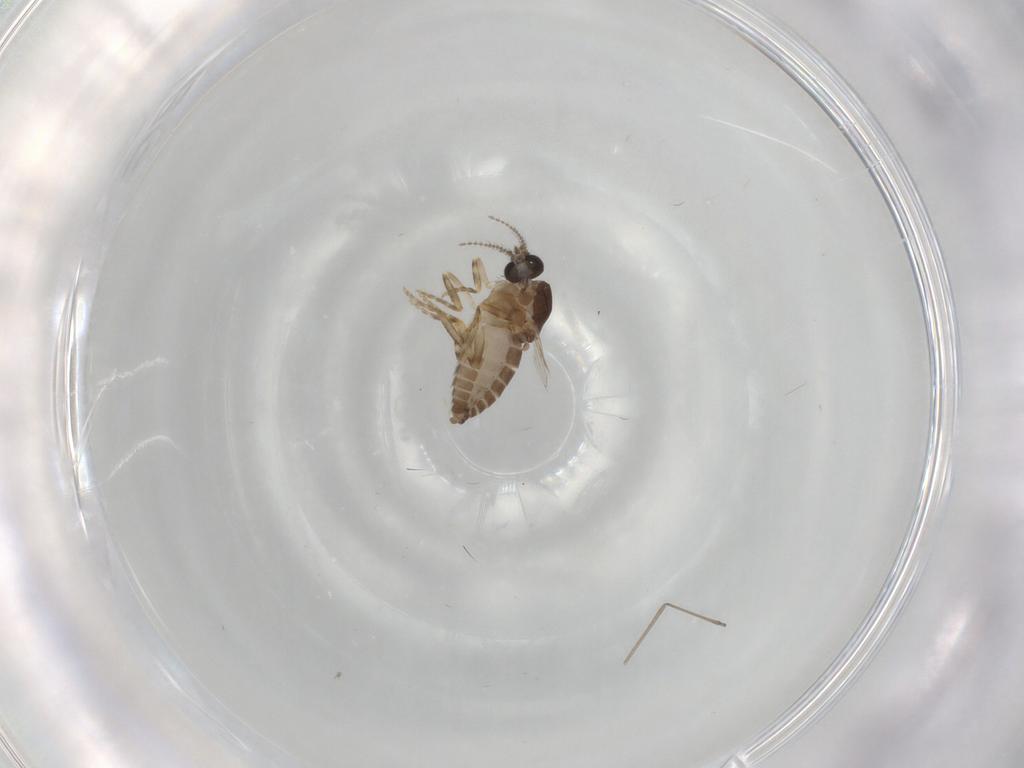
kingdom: Animalia
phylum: Arthropoda
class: Insecta
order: Diptera
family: Ceratopogonidae
